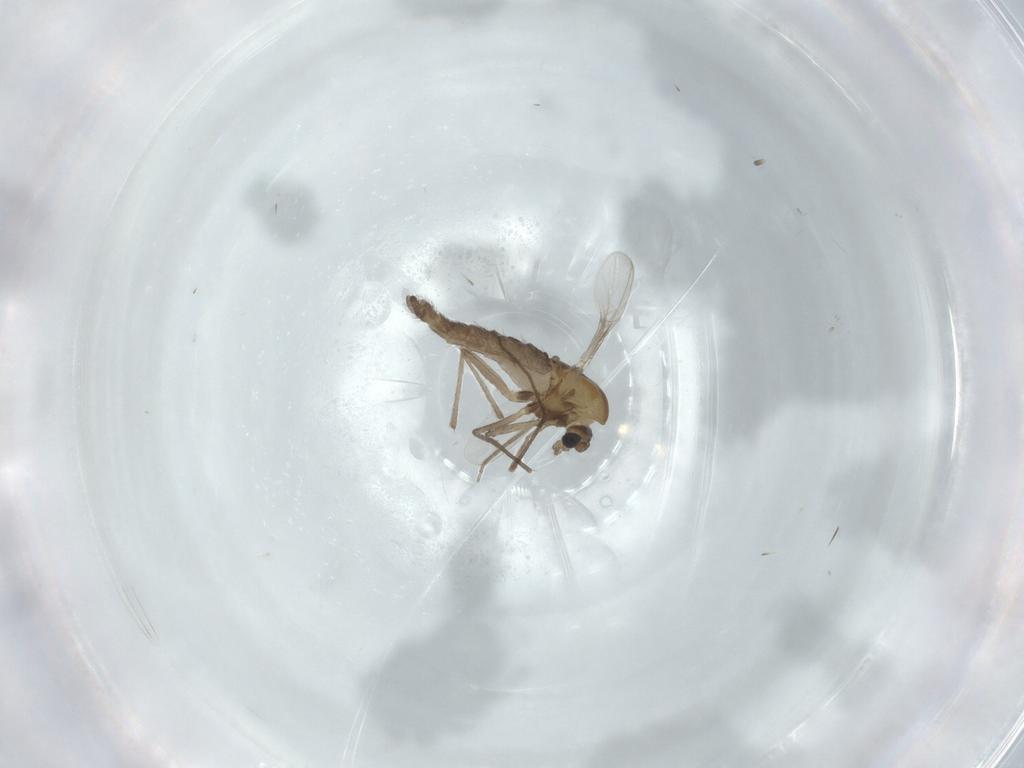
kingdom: Animalia
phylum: Arthropoda
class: Insecta
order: Diptera
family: Chironomidae
